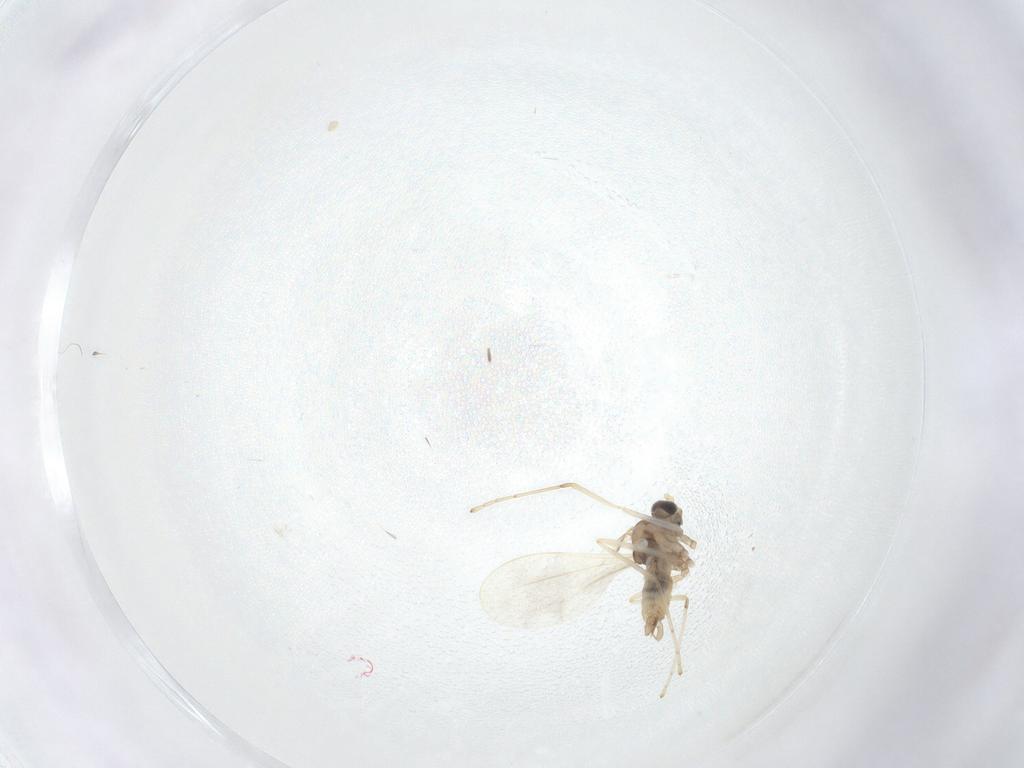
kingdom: Animalia
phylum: Arthropoda
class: Insecta
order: Diptera
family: Cecidomyiidae
